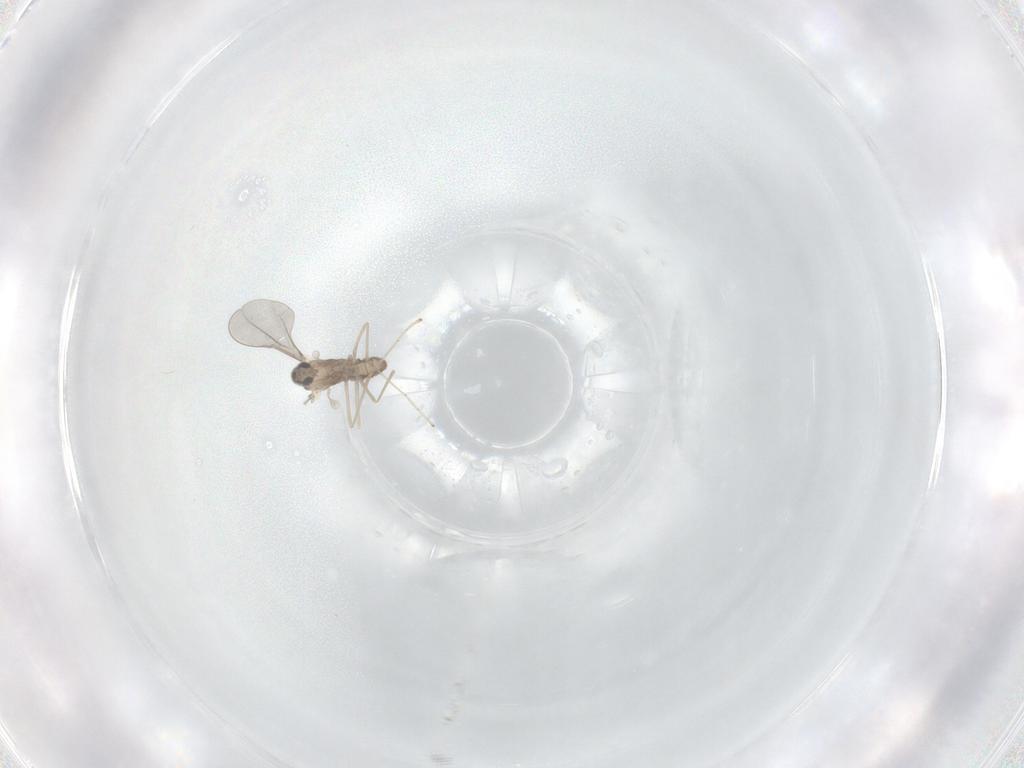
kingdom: Animalia
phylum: Arthropoda
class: Insecta
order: Diptera
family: Cecidomyiidae
